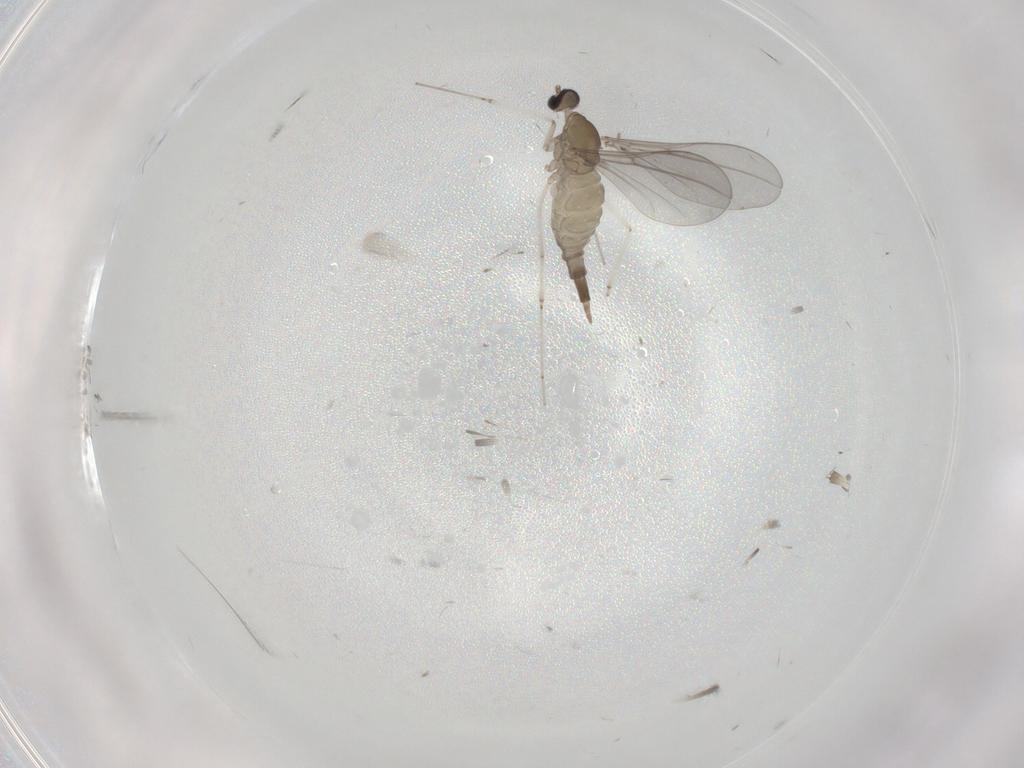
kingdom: Animalia
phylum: Arthropoda
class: Insecta
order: Diptera
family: Cecidomyiidae
